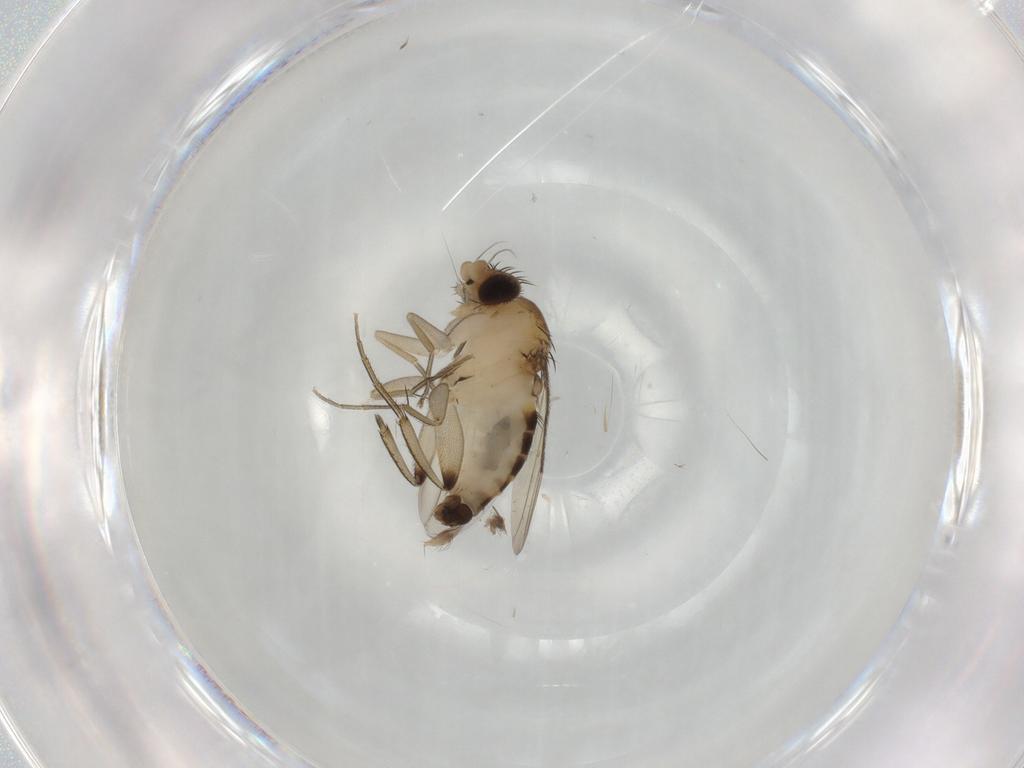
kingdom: Animalia
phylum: Arthropoda
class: Insecta
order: Diptera
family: Phoridae
